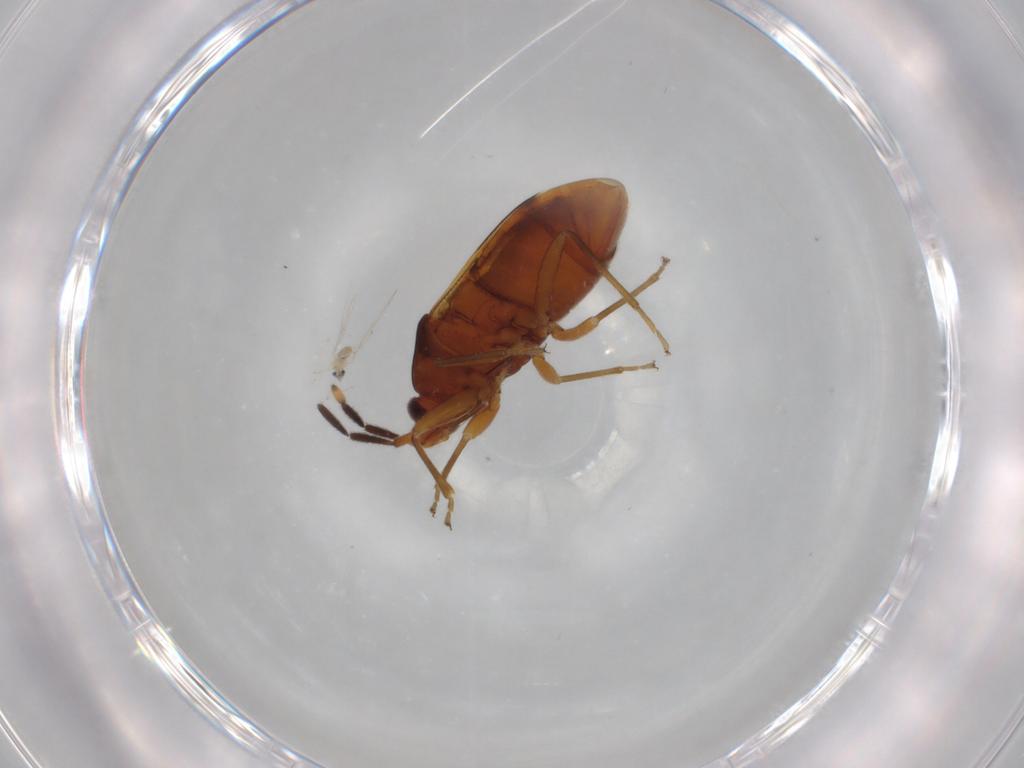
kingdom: Animalia
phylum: Arthropoda
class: Insecta
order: Hemiptera
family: Rhyparochromidae
